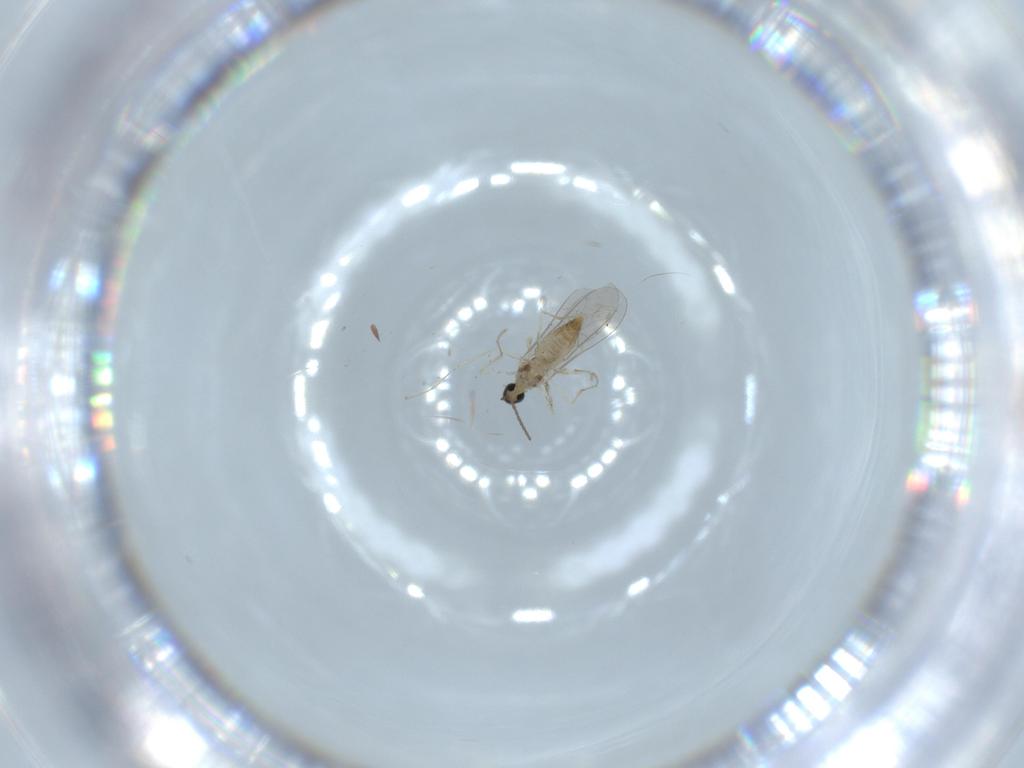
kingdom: Animalia
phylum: Arthropoda
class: Insecta
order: Diptera
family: Cecidomyiidae
